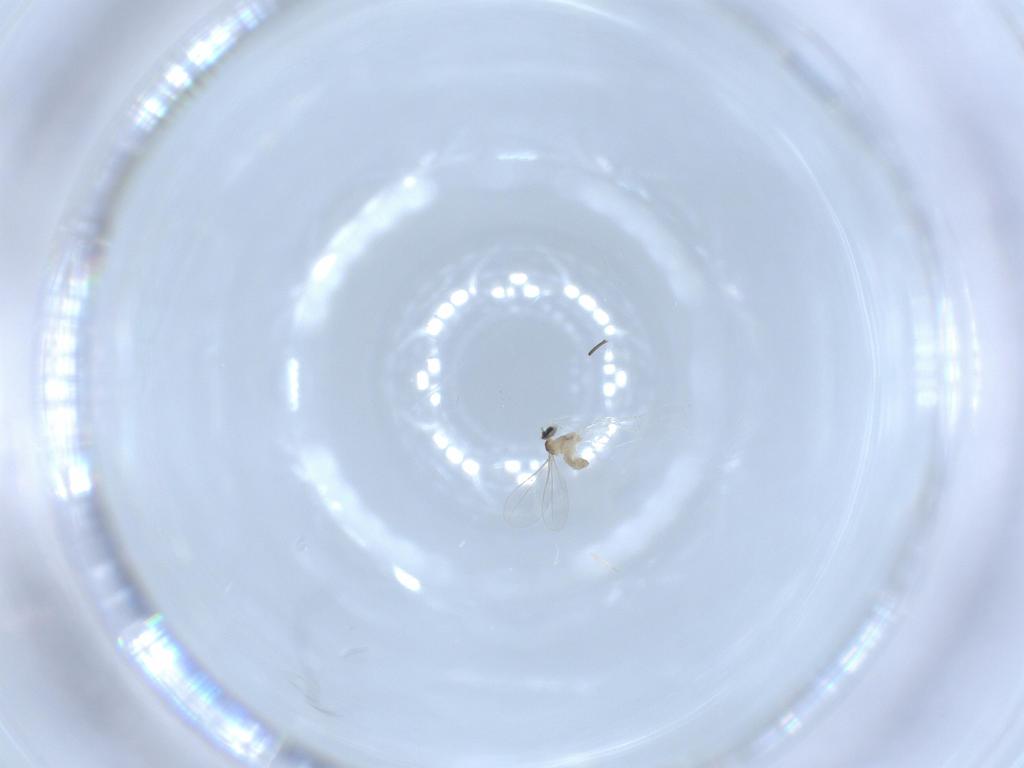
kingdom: Animalia
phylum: Arthropoda
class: Insecta
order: Diptera
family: Cecidomyiidae
